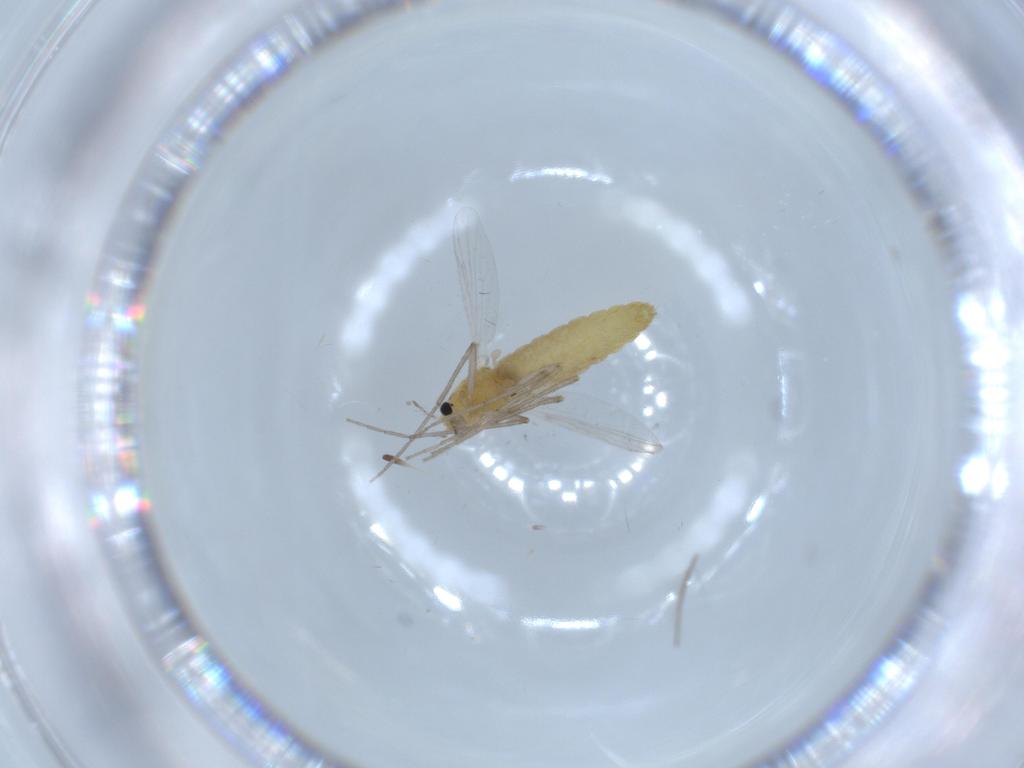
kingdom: Animalia
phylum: Arthropoda
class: Insecta
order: Diptera
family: Chironomidae
